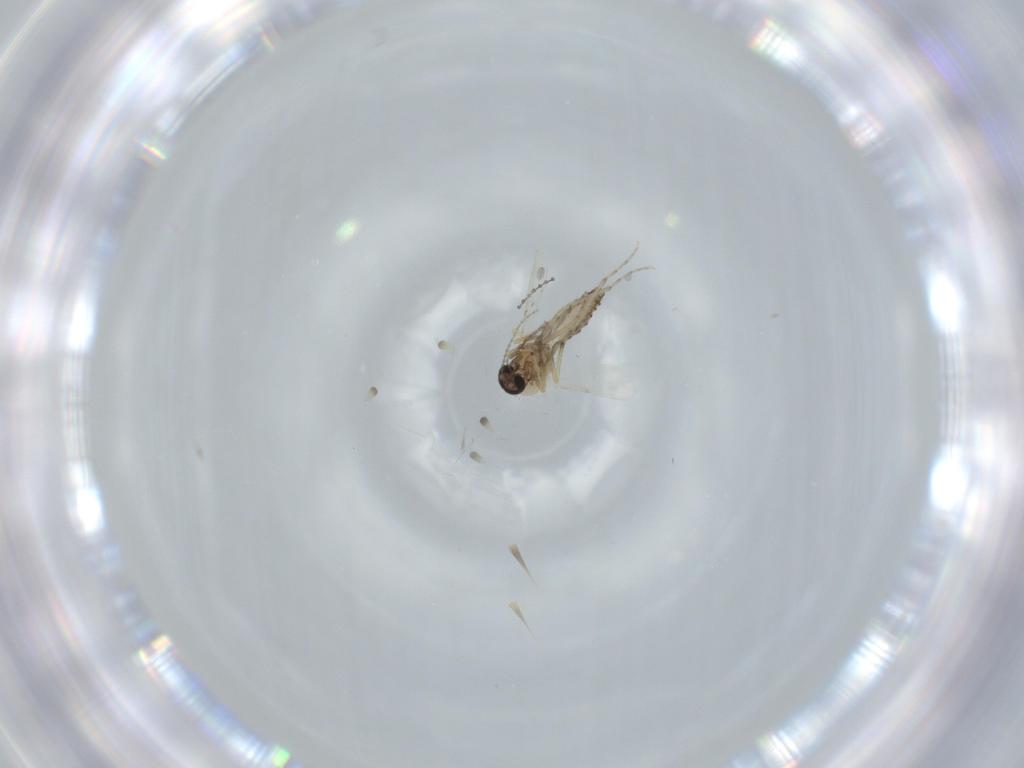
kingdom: Animalia
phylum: Arthropoda
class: Insecta
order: Diptera
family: Cecidomyiidae
